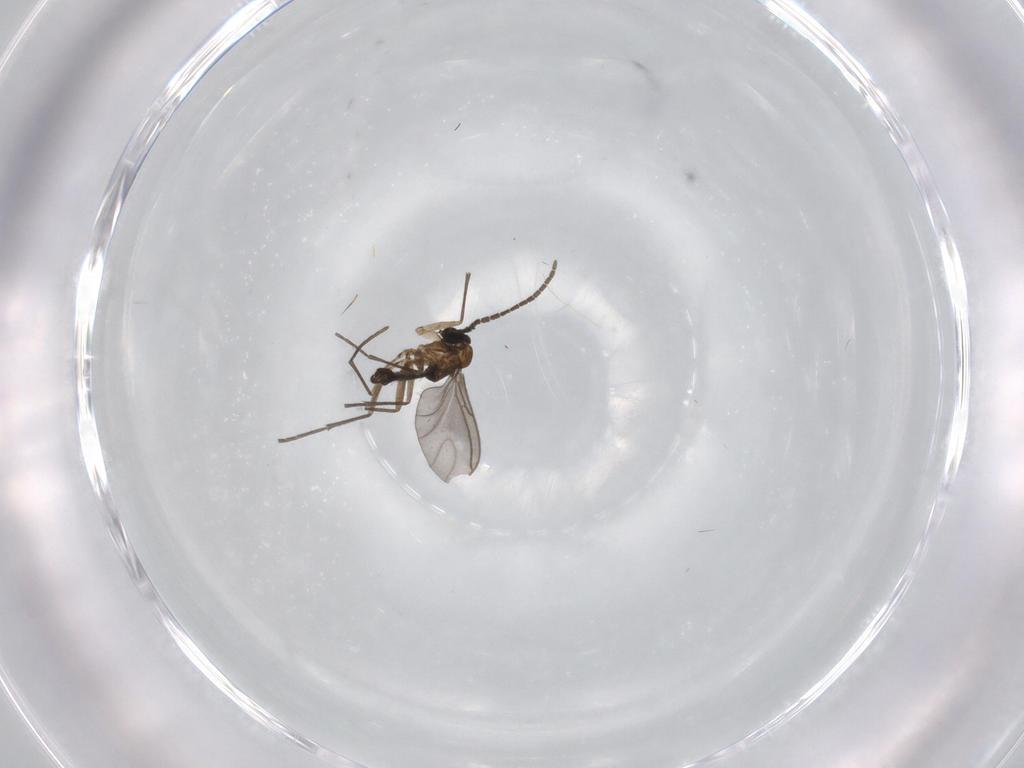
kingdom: Animalia
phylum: Arthropoda
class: Insecta
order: Diptera
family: Sciaridae
